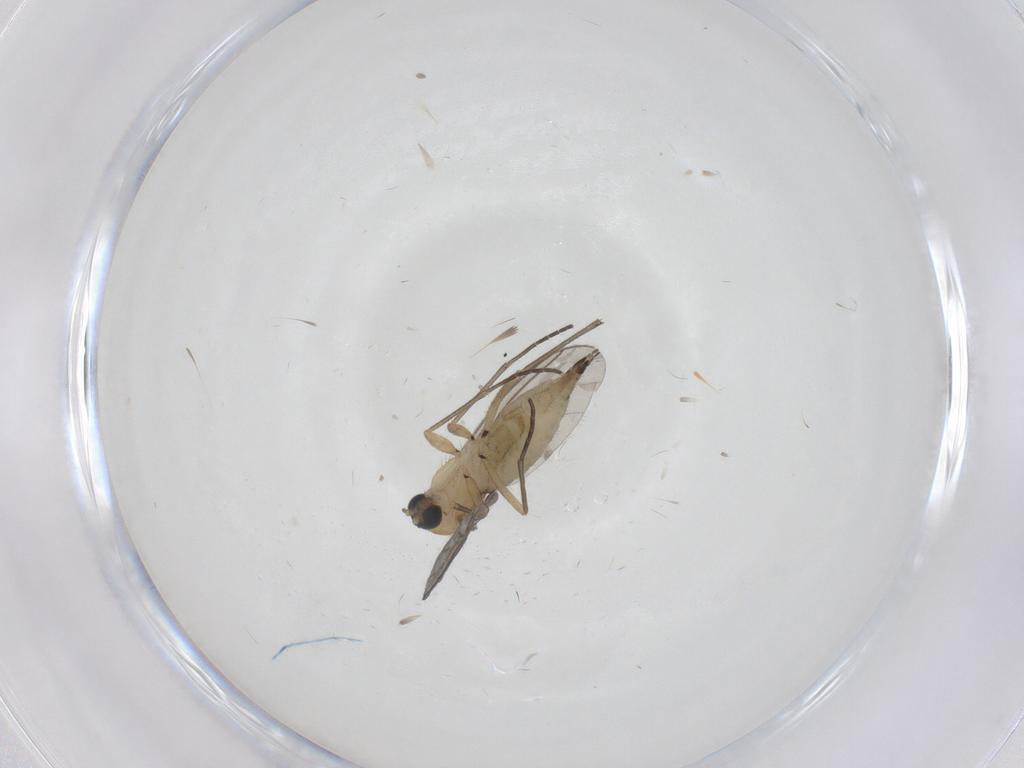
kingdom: Animalia
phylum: Arthropoda
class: Insecta
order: Diptera
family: Sciaridae
